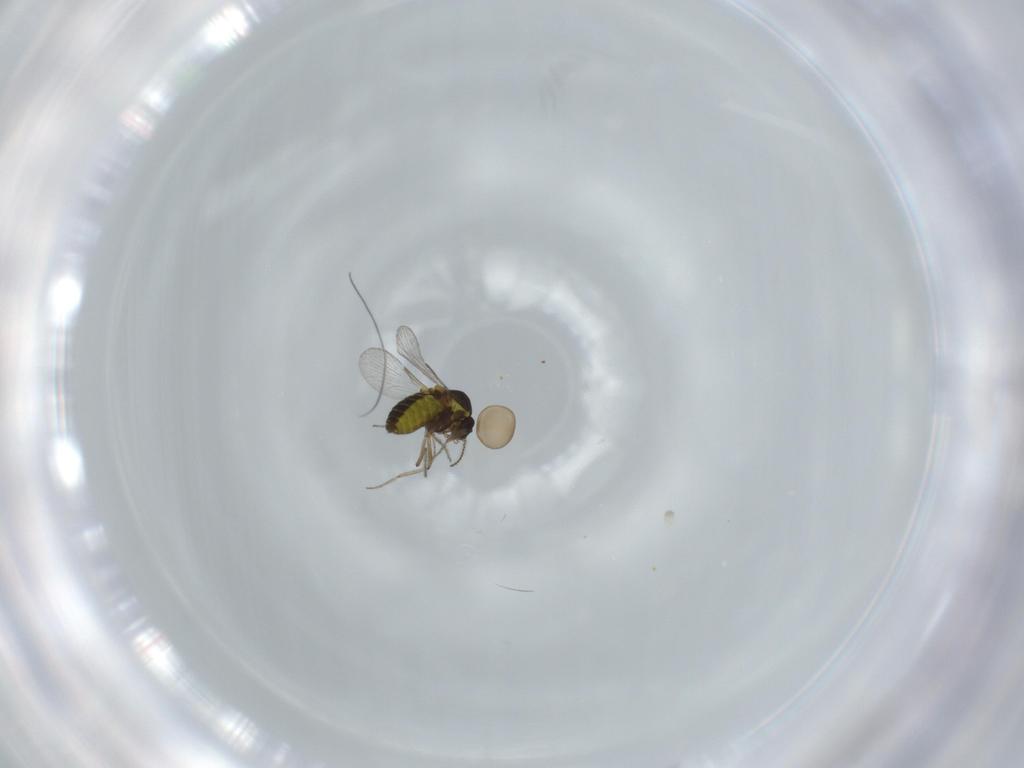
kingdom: Animalia
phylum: Arthropoda
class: Insecta
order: Diptera
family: Ceratopogonidae
